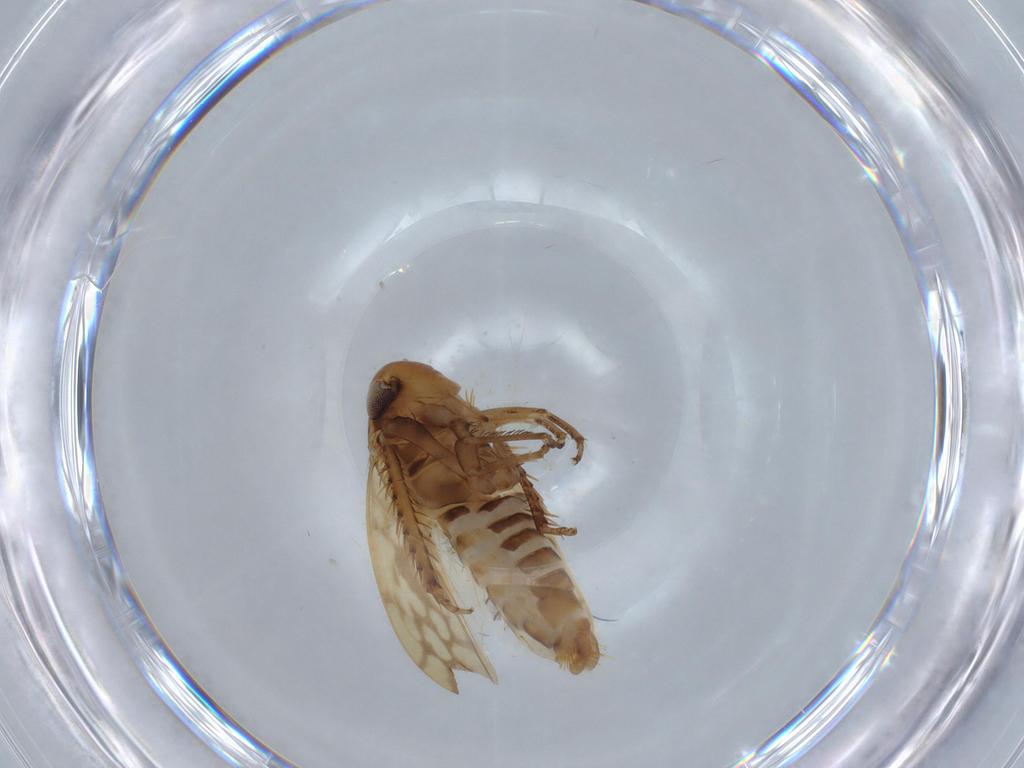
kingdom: Animalia
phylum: Arthropoda
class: Insecta
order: Hemiptera
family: Cicadellidae
